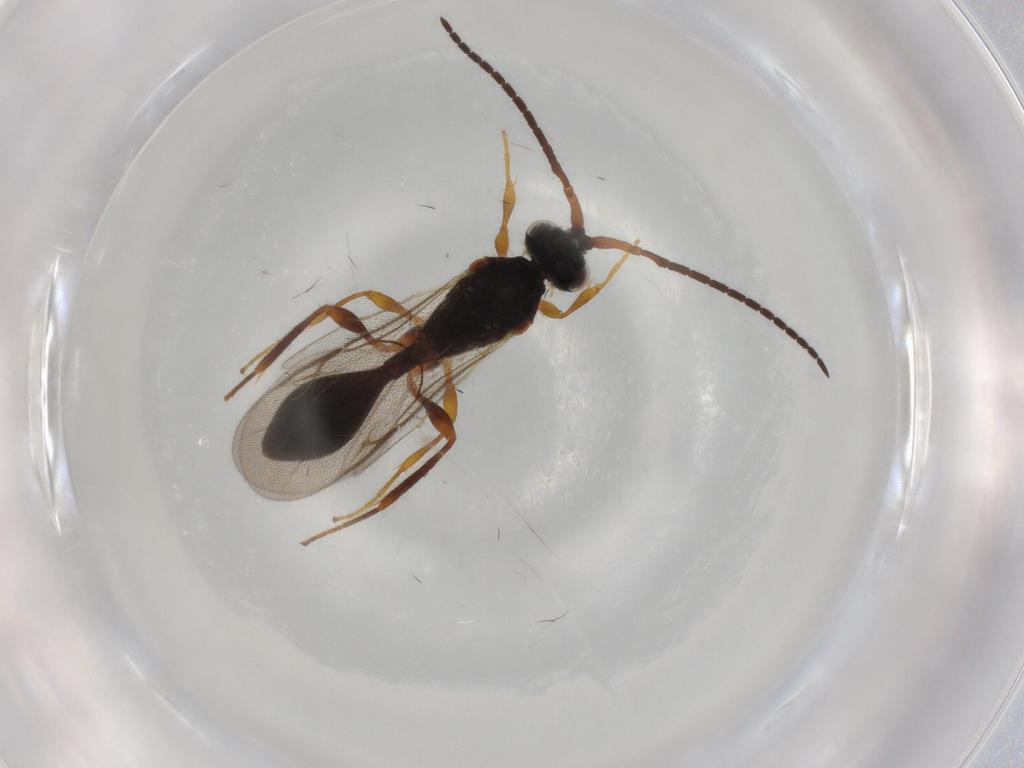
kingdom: Animalia
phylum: Arthropoda
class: Insecta
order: Hymenoptera
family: Diapriidae
